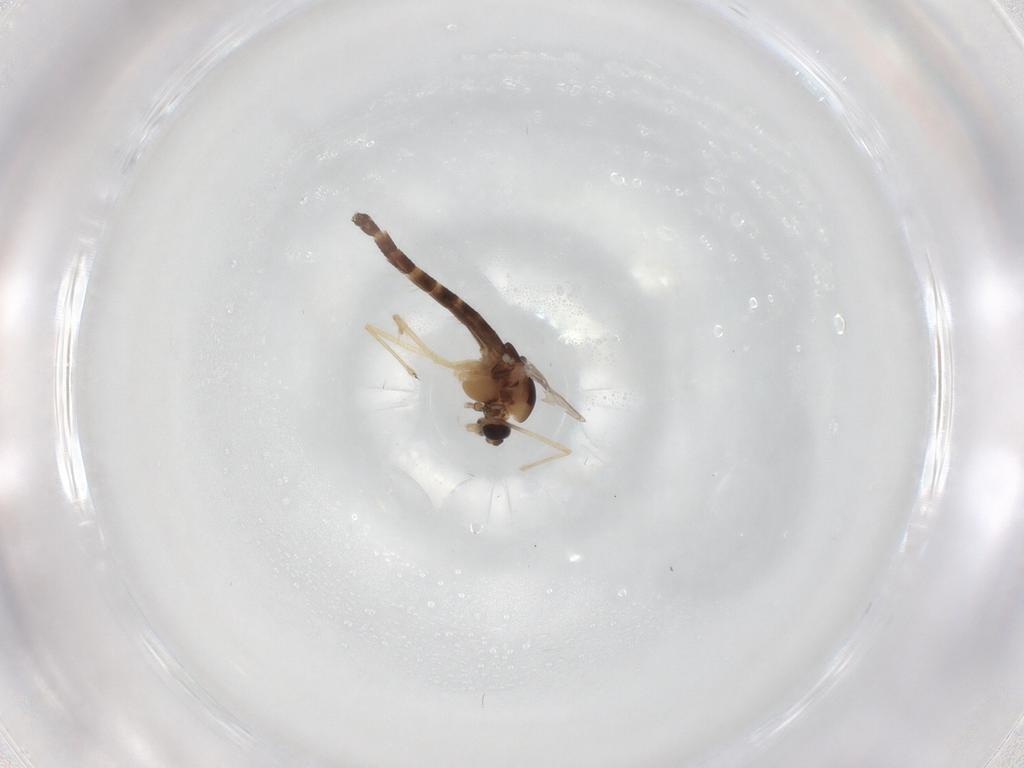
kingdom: Animalia
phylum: Arthropoda
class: Insecta
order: Diptera
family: Chironomidae
